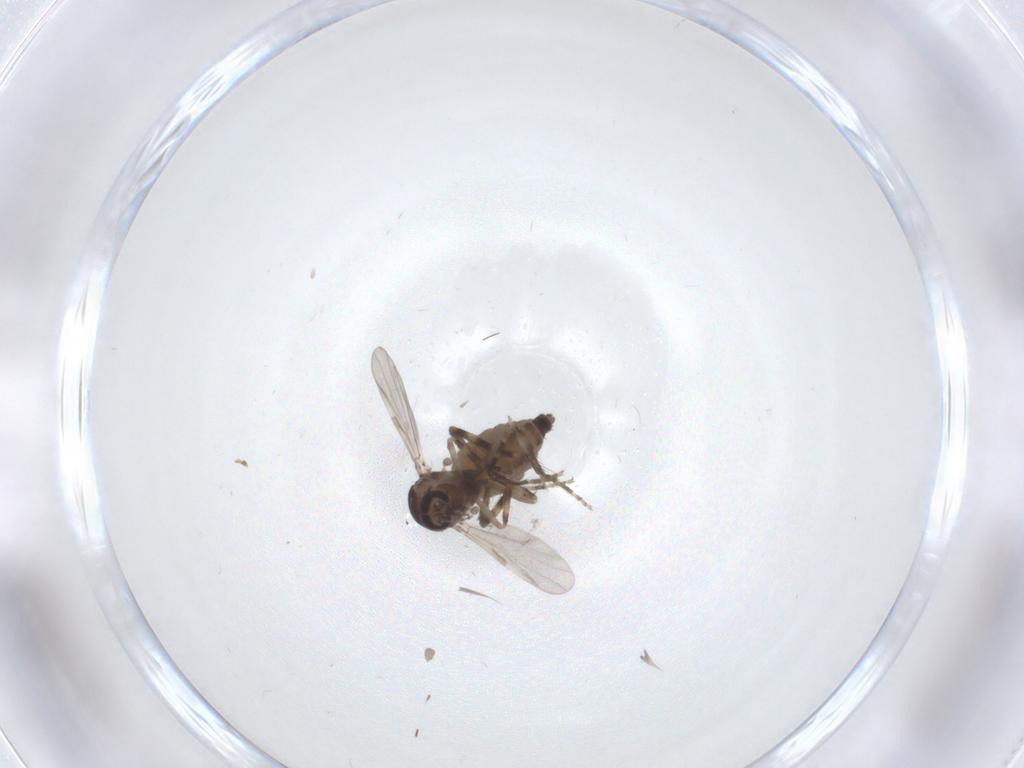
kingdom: Animalia
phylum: Arthropoda
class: Insecta
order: Diptera
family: Ceratopogonidae
